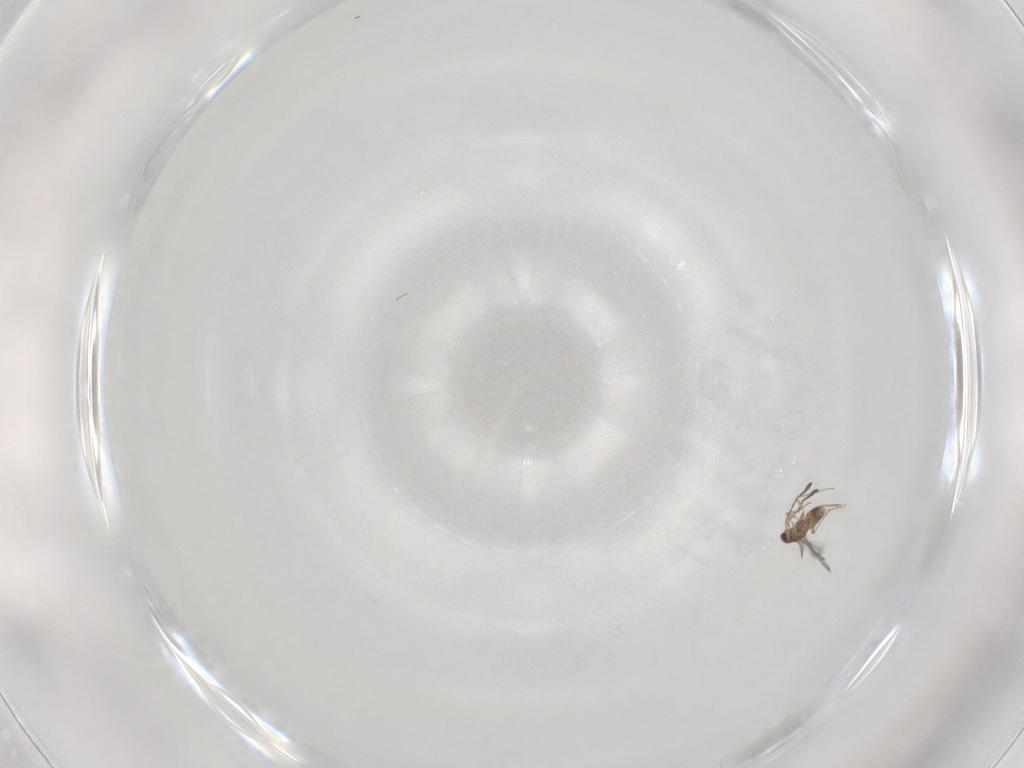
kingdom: Animalia
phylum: Arthropoda
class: Insecta
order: Hymenoptera
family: Mymaridae
